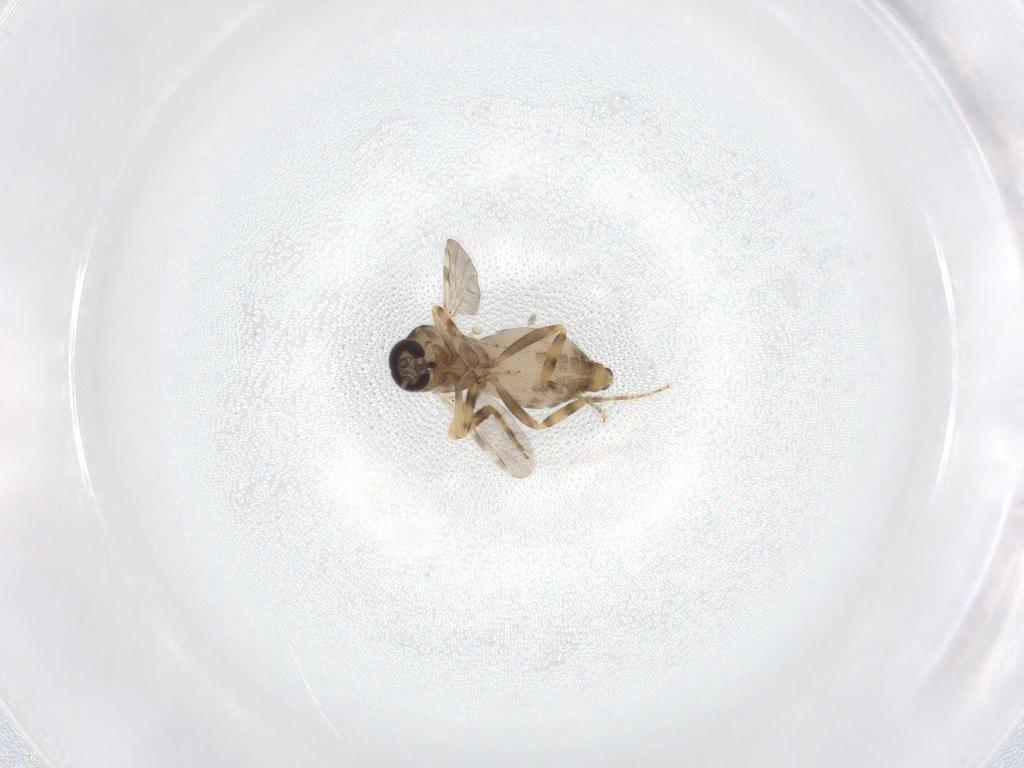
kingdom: Animalia
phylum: Arthropoda
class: Insecta
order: Diptera
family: Ceratopogonidae
